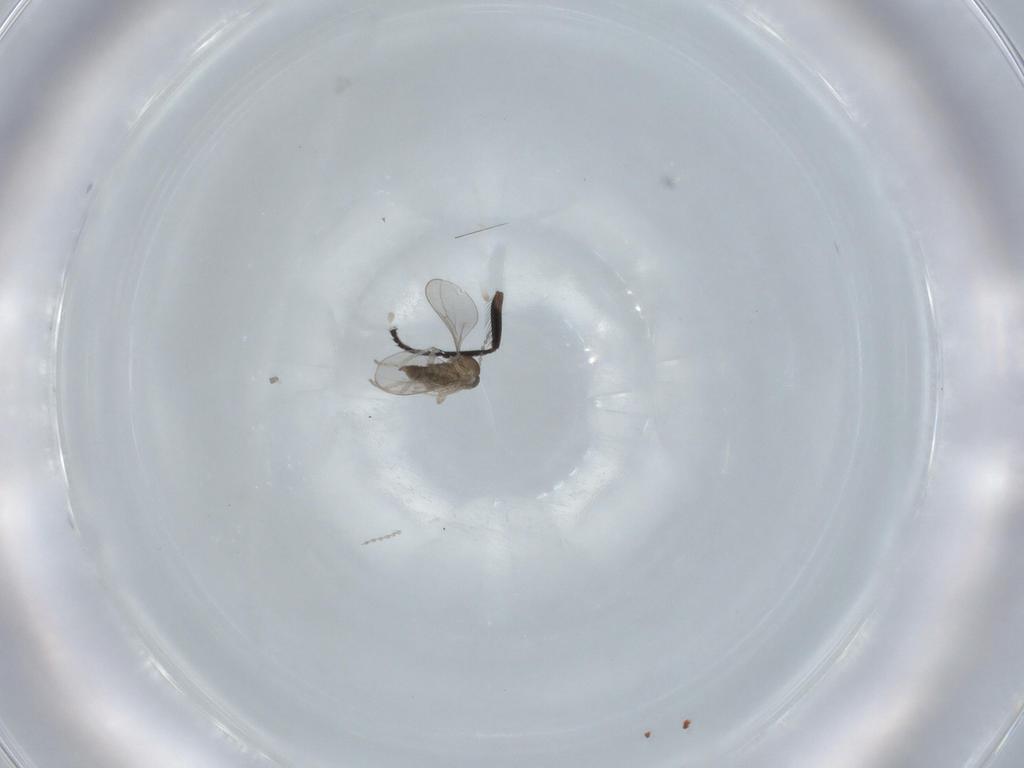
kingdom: Animalia
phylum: Arthropoda
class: Insecta
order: Diptera
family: Cecidomyiidae
